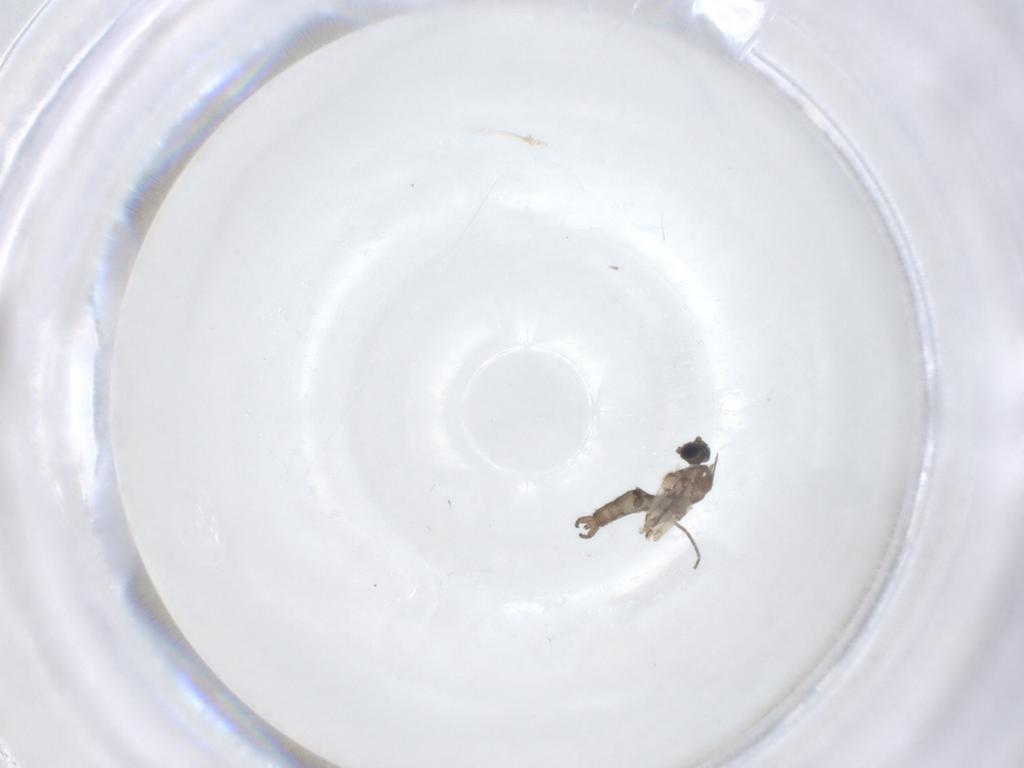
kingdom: Animalia
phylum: Arthropoda
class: Insecta
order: Diptera
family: Sciaridae
